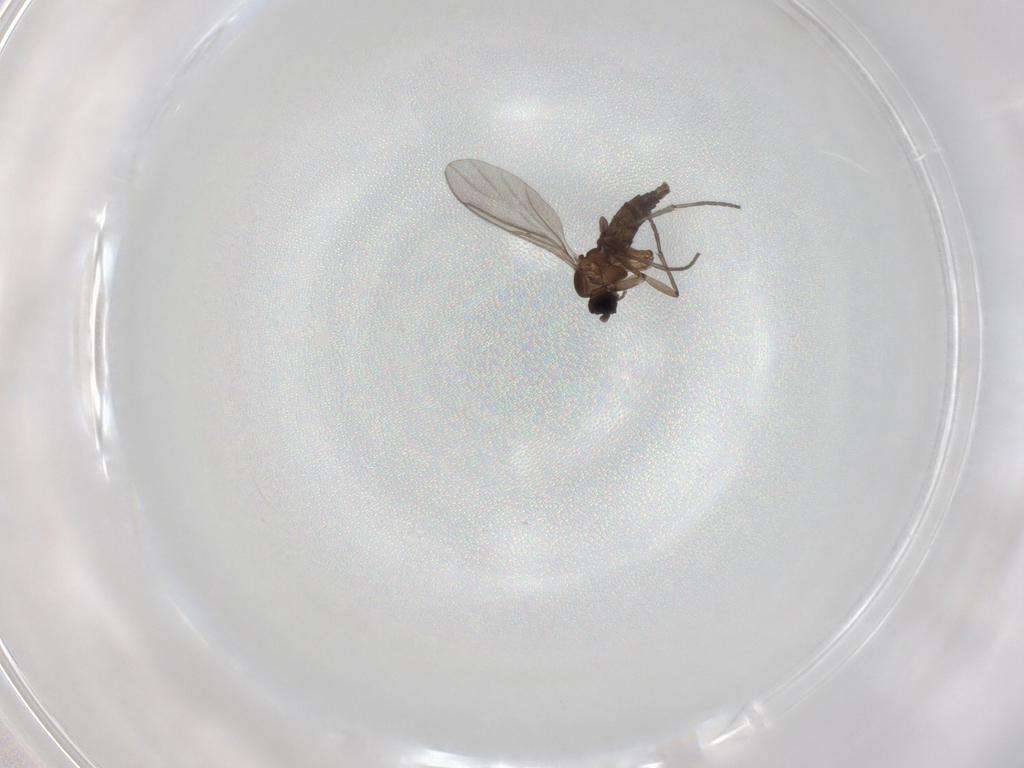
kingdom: Animalia
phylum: Arthropoda
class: Insecta
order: Diptera
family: Sciaridae
